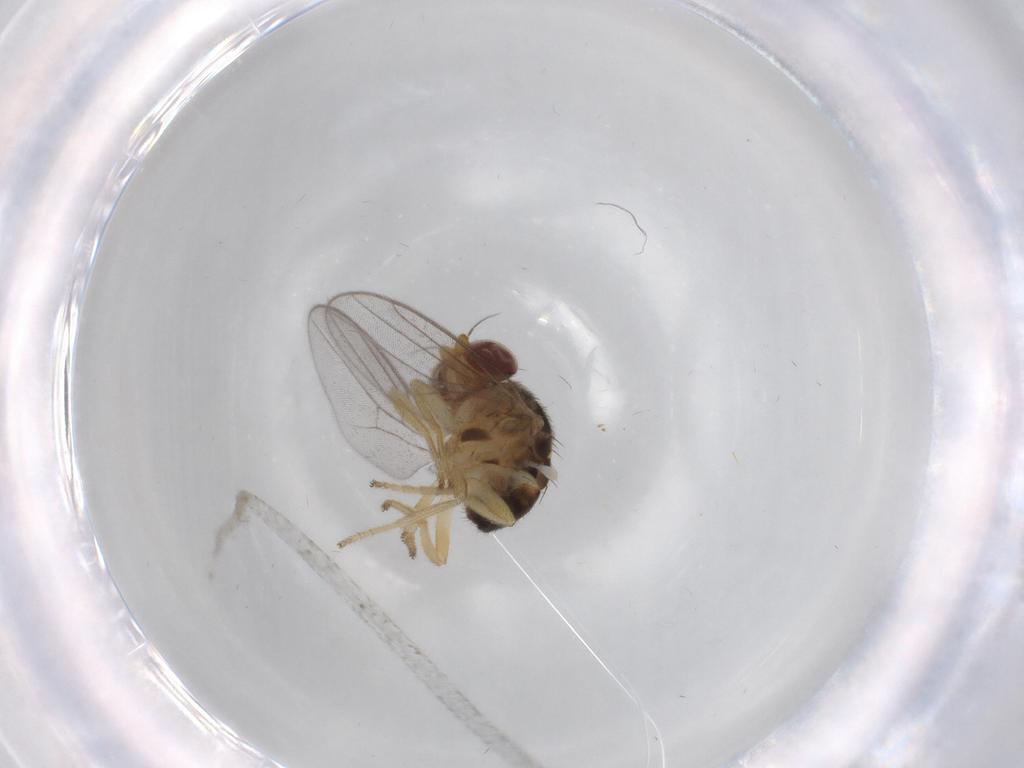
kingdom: Animalia
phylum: Arthropoda
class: Insecta
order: Diptera
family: Chloropidae
